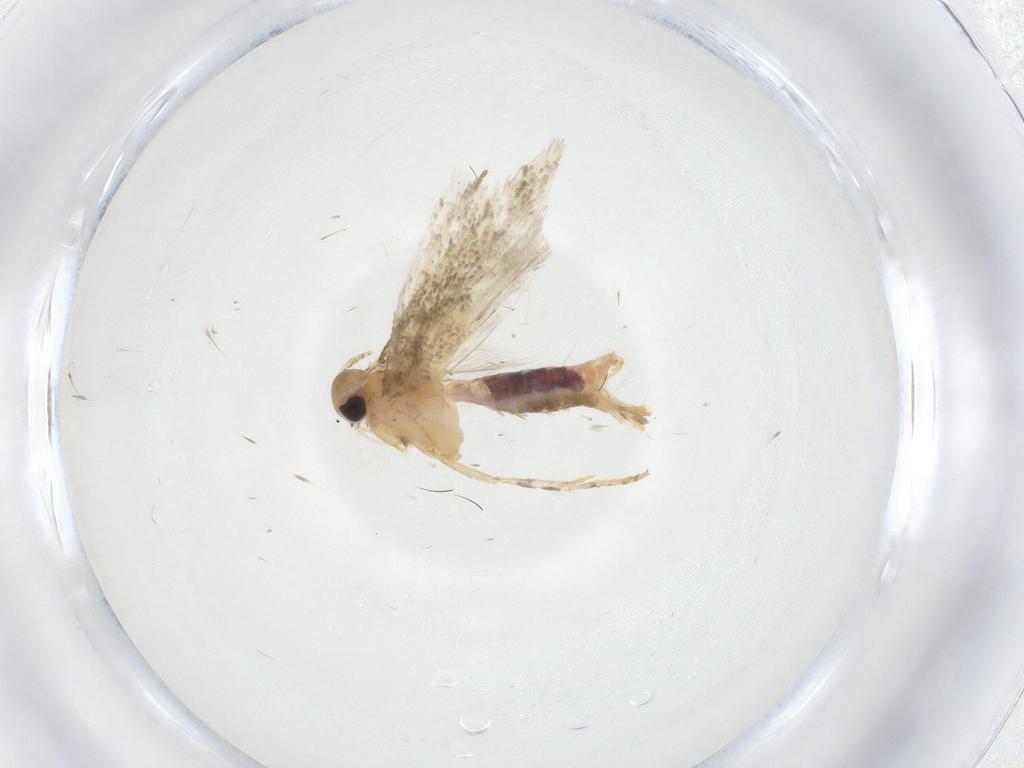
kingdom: Animalia
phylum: Arthropoda
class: Insecta
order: Lepidoptera
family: Gelechiidae
